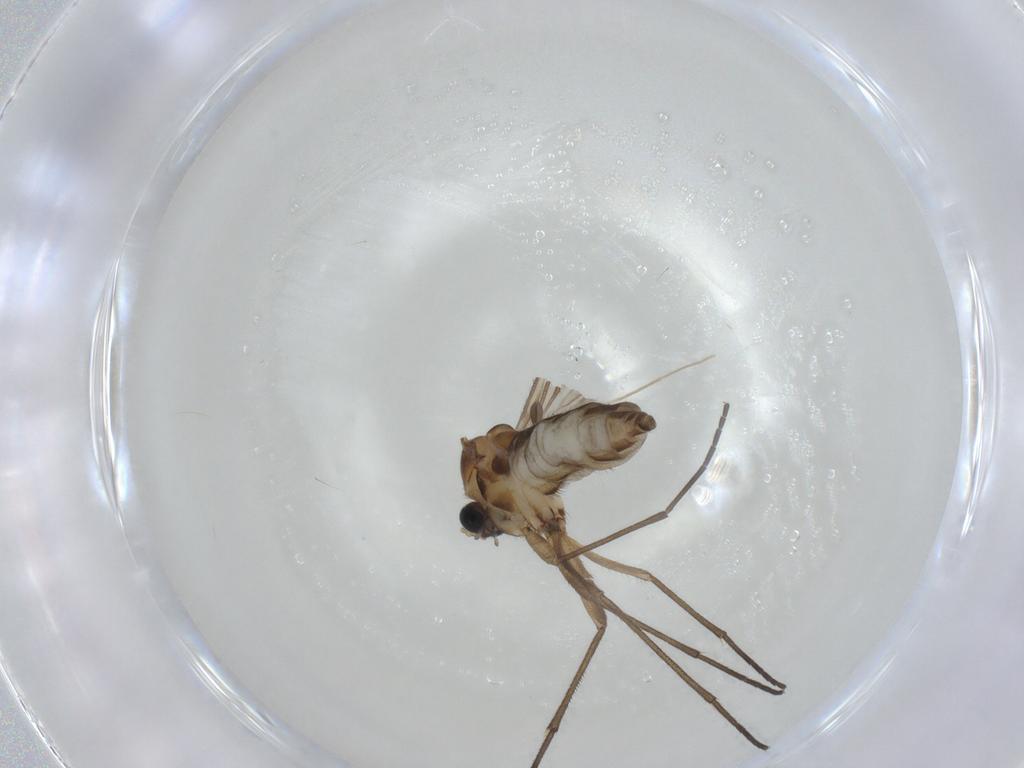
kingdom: Animalia
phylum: Arthropoda
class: Insecta
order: Diptera
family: Sciaridae
